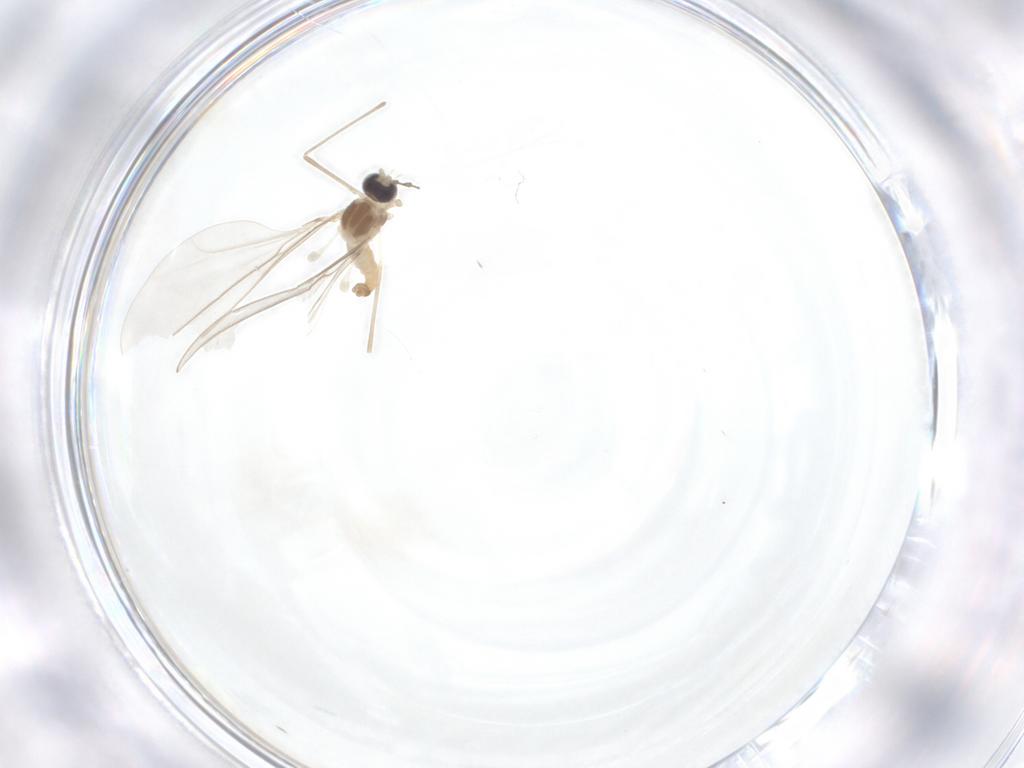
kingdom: Animalia
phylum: Arthropoda
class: Insecta
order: Diptera
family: Cecidomyiidae
